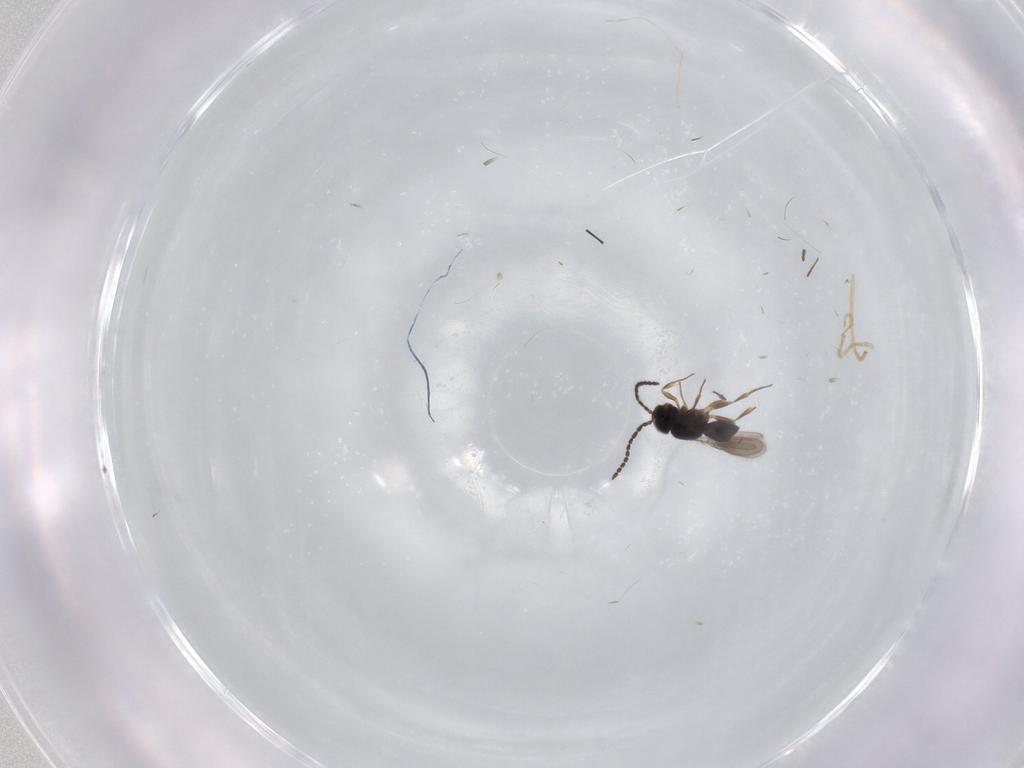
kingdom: Animalia
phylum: Arthropoda
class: Insecta
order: Hymenoptera
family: Scelionidae
